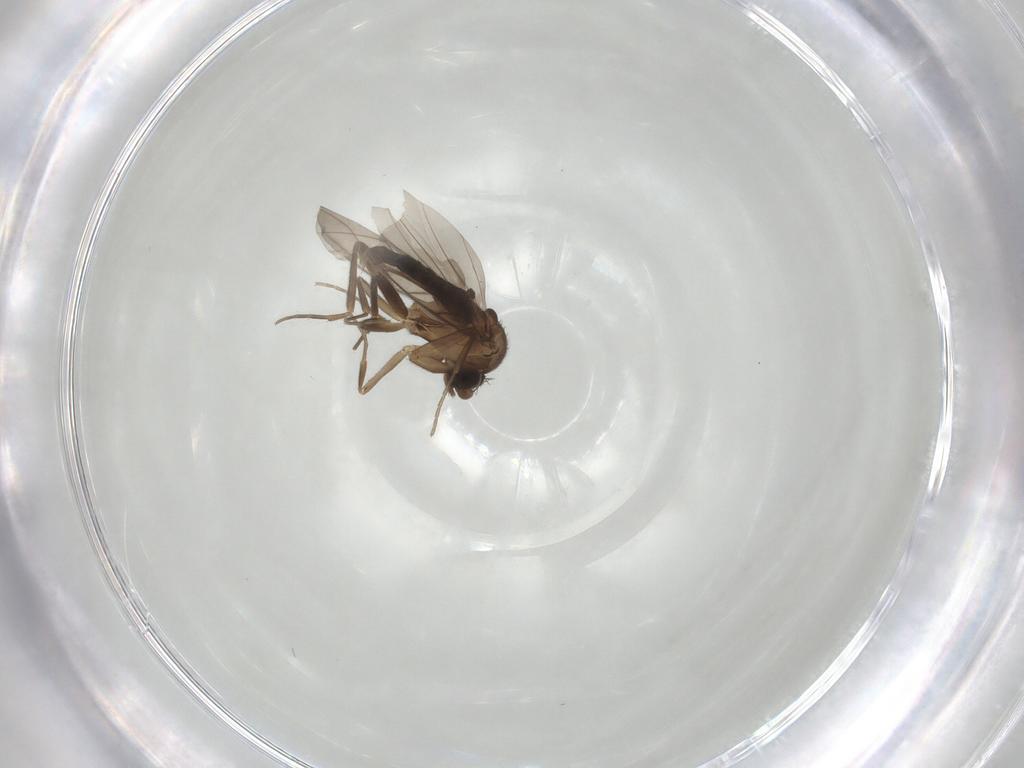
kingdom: Animalia
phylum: Arthropoda
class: Insecta
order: Diptera
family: Phoridae
